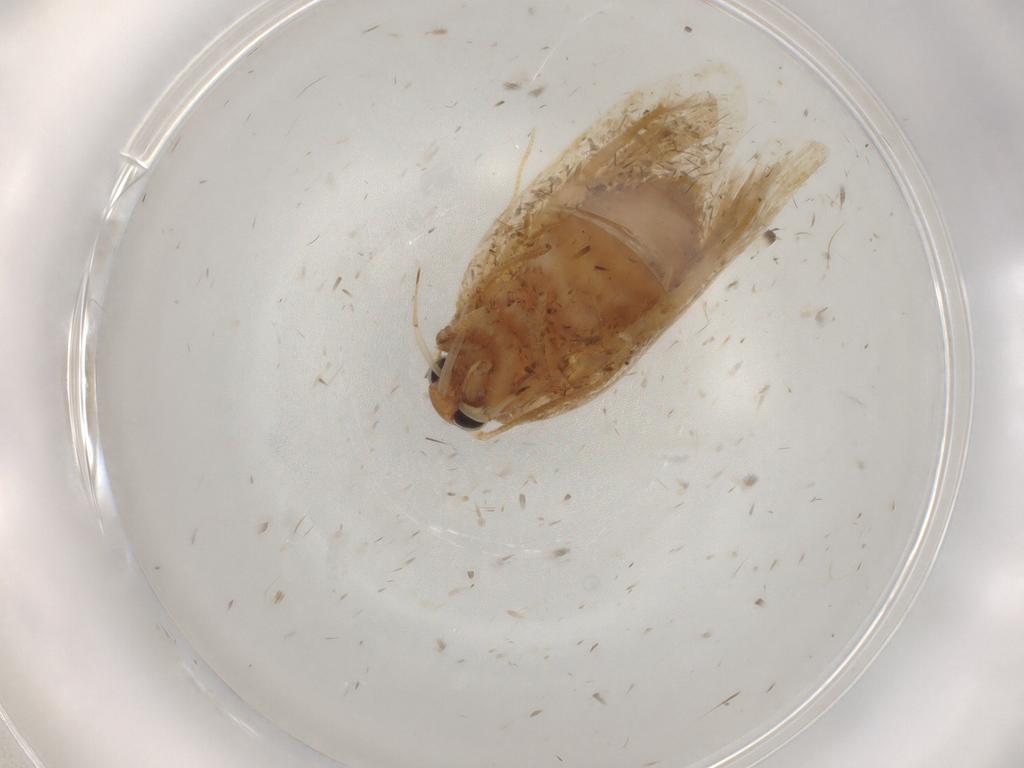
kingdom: Animalia
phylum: Arthropoda
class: Insecta
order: Lepidoptera
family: Depressariidae
